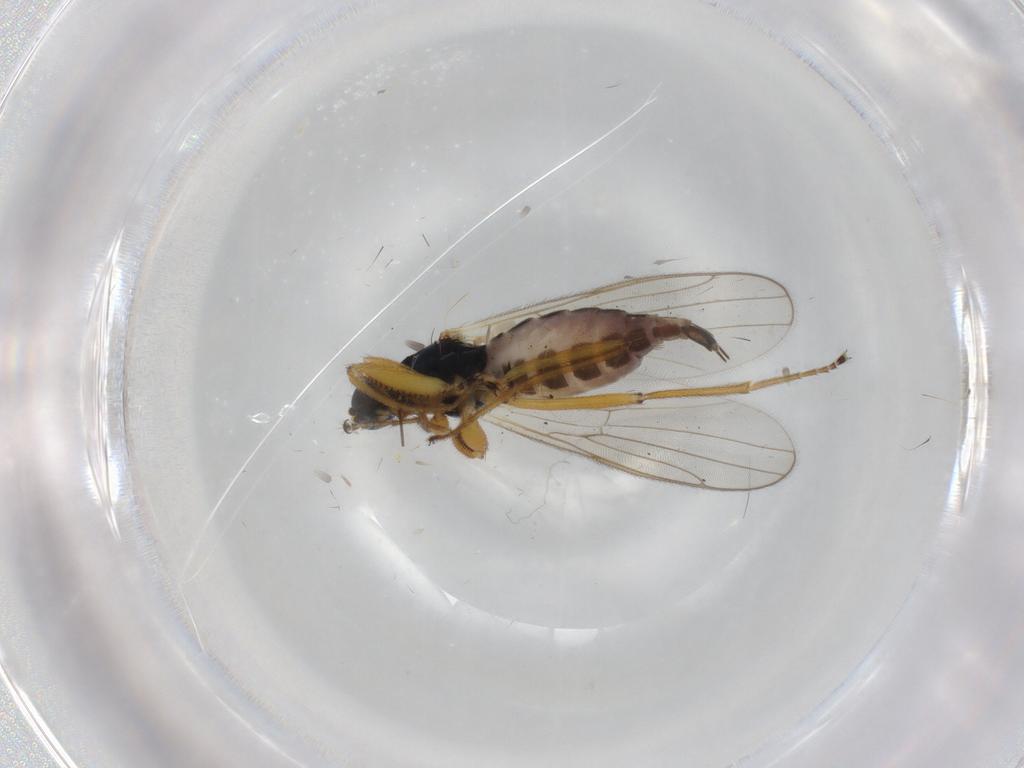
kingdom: Animalia
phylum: Arthropoda
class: Insecta
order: Diptera
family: Hybotidae
